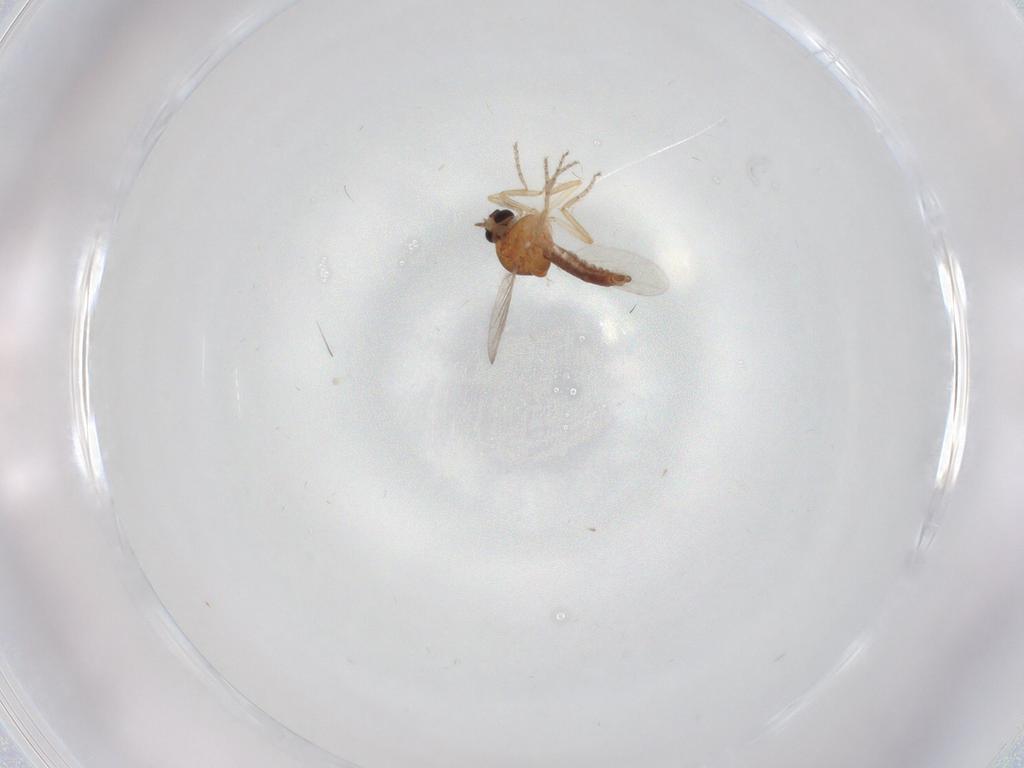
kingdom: Animalia
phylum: Arthropoda
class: Insecta
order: Diptera
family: Ceratopogonidae
